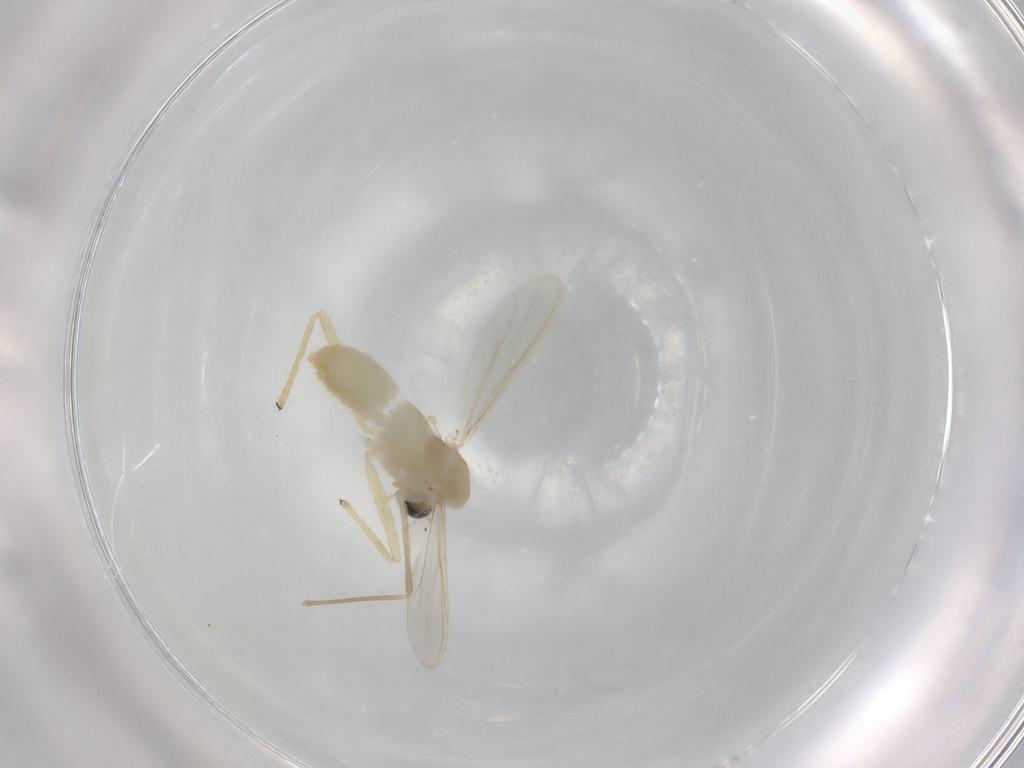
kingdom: Animalia
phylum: Arthropoda
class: Insecta
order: Diptera
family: Chironomidae
